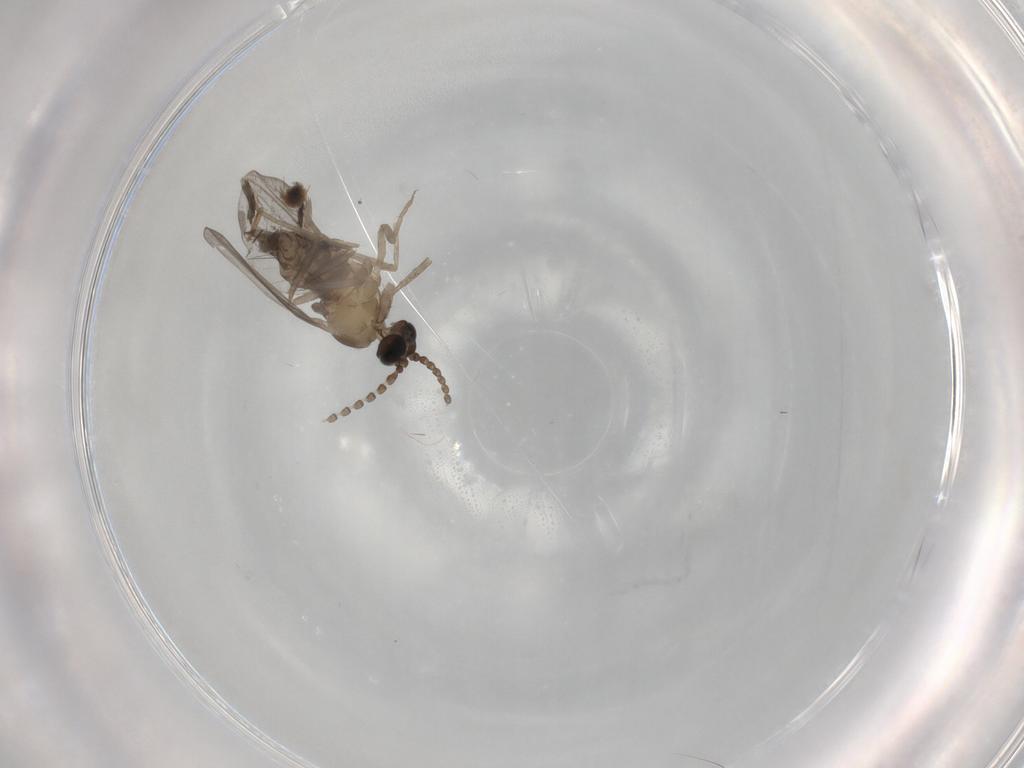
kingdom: Animalia
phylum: Arthropoda
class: Insecta
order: Diptera
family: Cecidomyiidae
